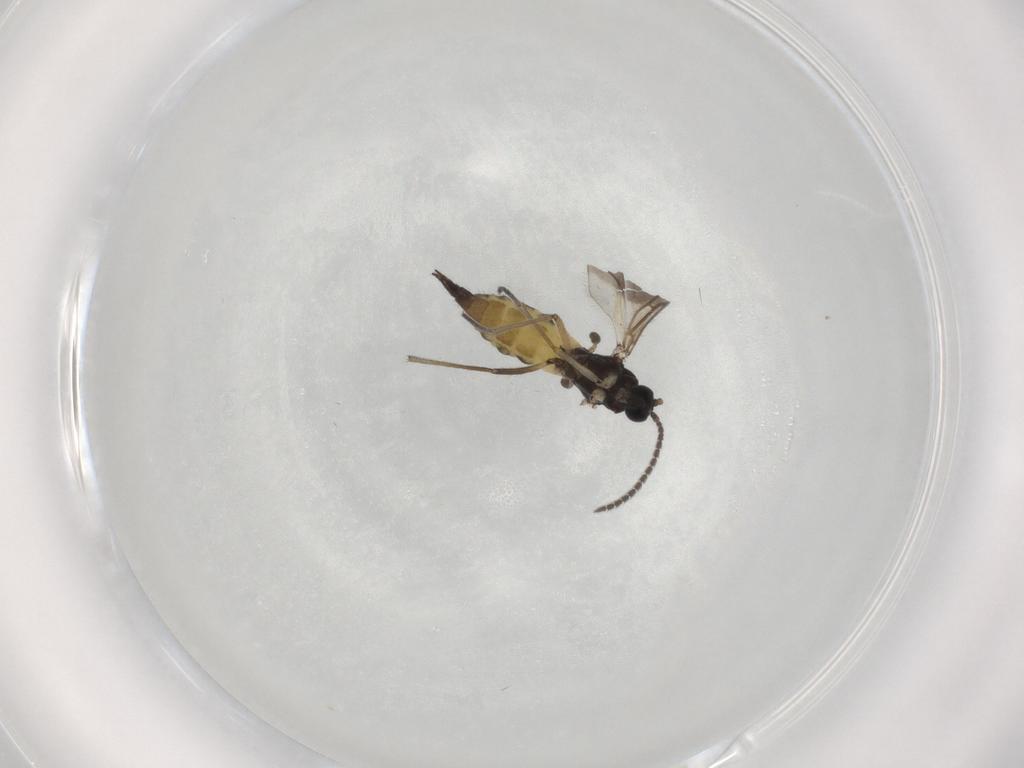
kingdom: Animalia
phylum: Arthropoda
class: Insecta
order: Diptera
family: Sciaridae
